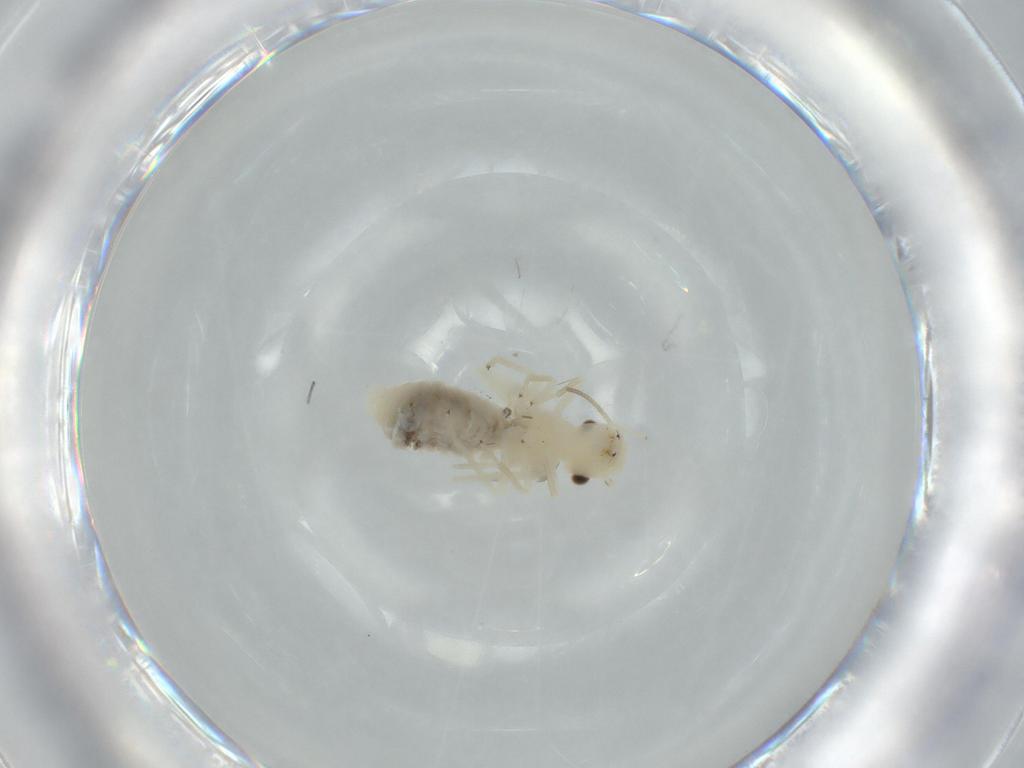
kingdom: Animalia
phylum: Arthropoda
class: Insecta
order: Psocodea
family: Caeciliusidae
